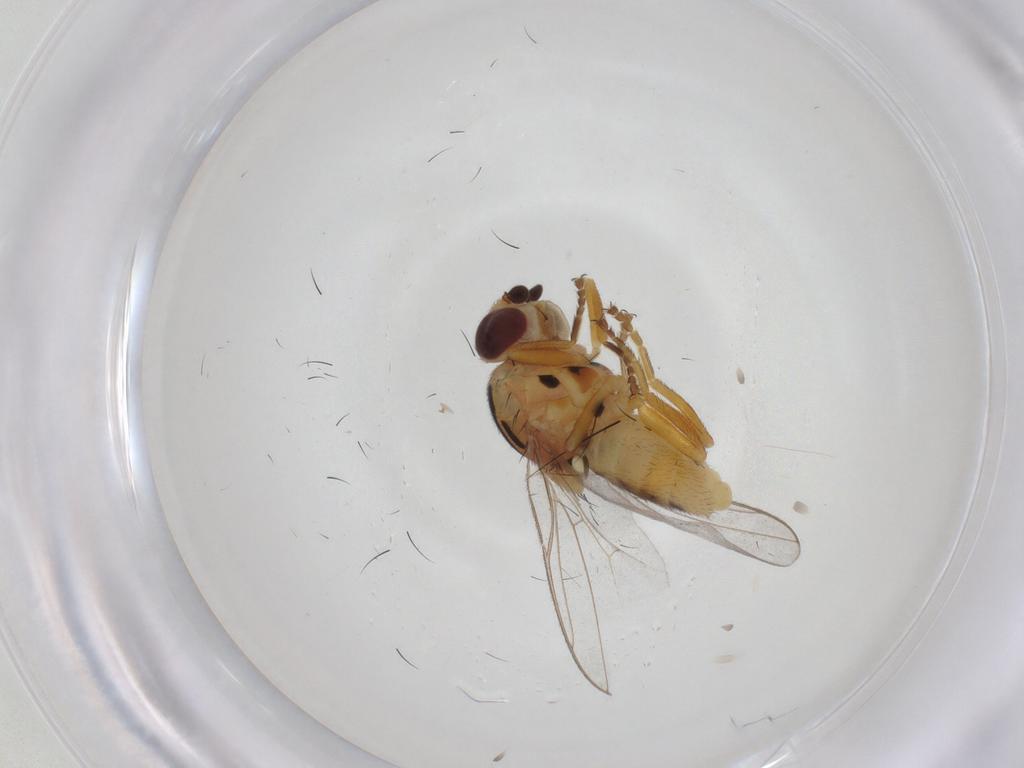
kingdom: Animalia
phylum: Arthropoda
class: Insecta
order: Diptera
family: Chloropidae
